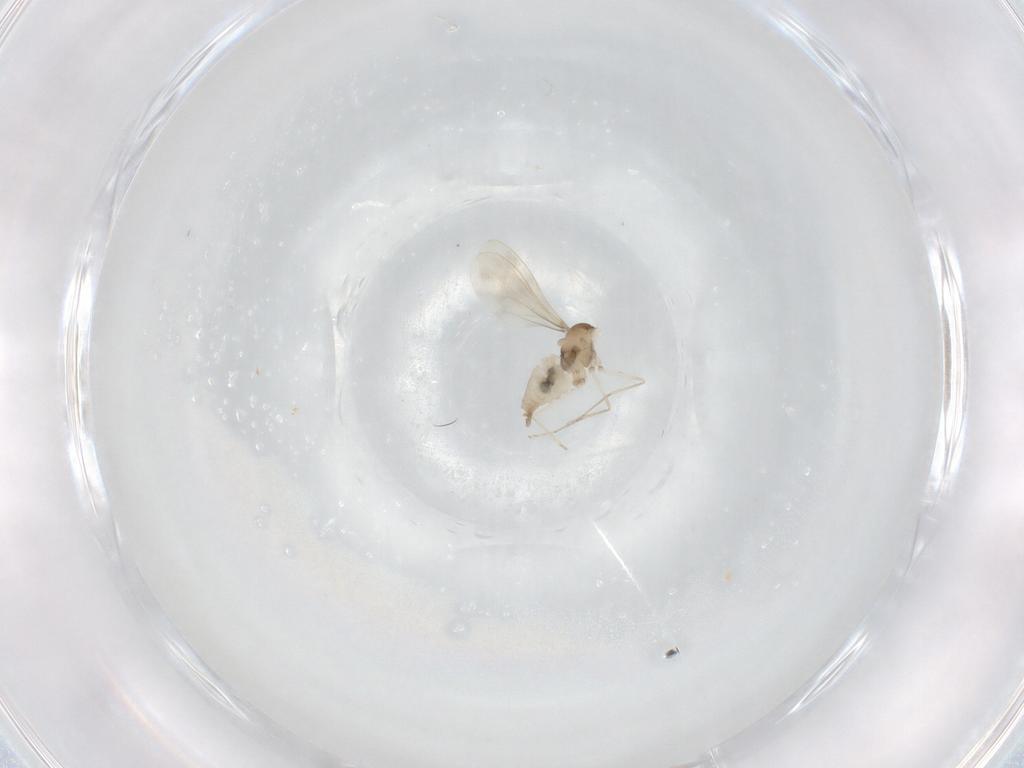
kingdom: Animalia
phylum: Arthropoda
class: Insecta
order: Diptera
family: Cecidomyiidae
